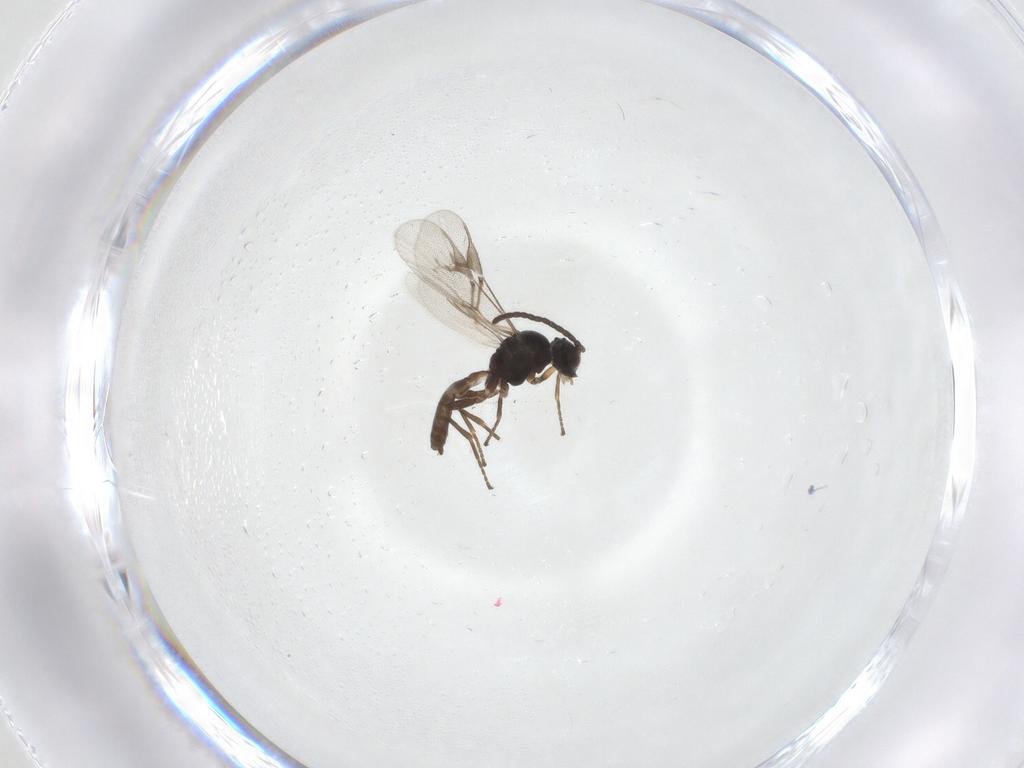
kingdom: Animalia
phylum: Arthropoda
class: Insecta
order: Hymenoptera
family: Braconidae
